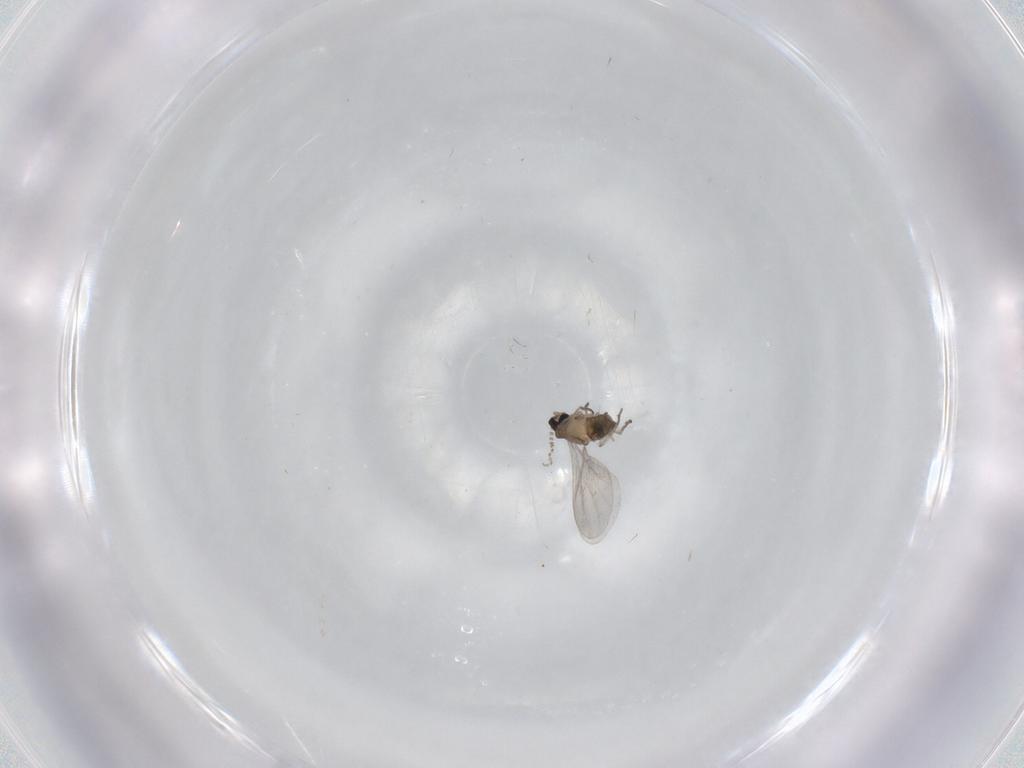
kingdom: Animalia
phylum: Arthropoda
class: Insecta
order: Diptera
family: Cecidomyiidae
